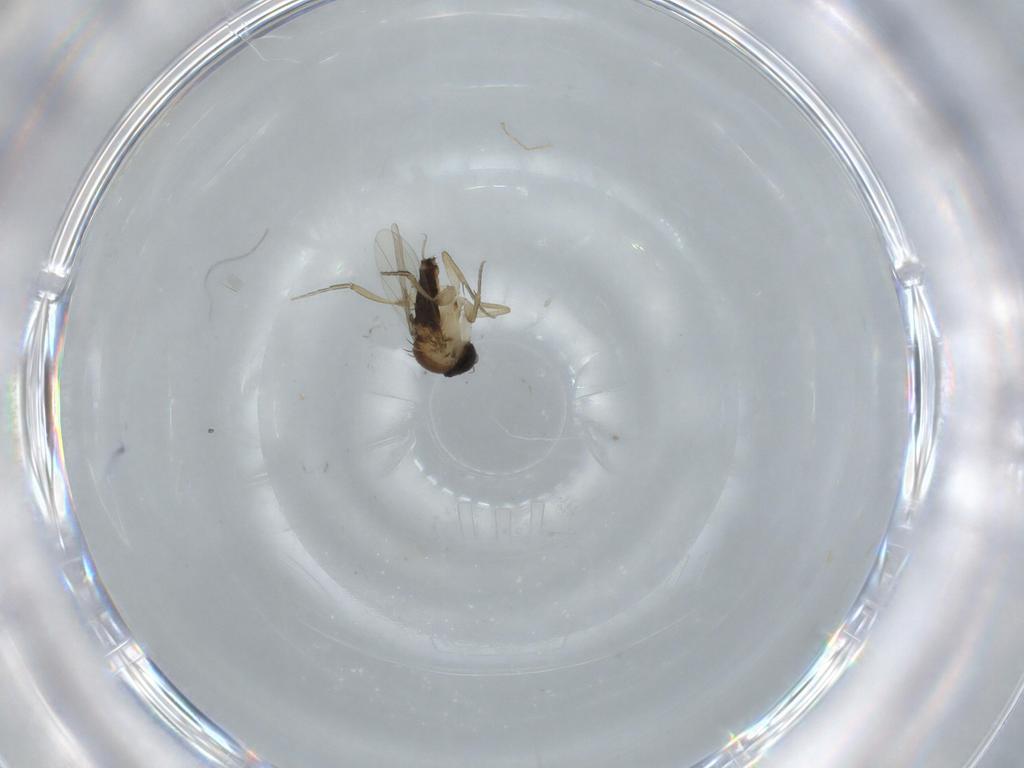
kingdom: Animalia
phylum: Arthropoda
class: Insecta
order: Diptera
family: Phoridae
